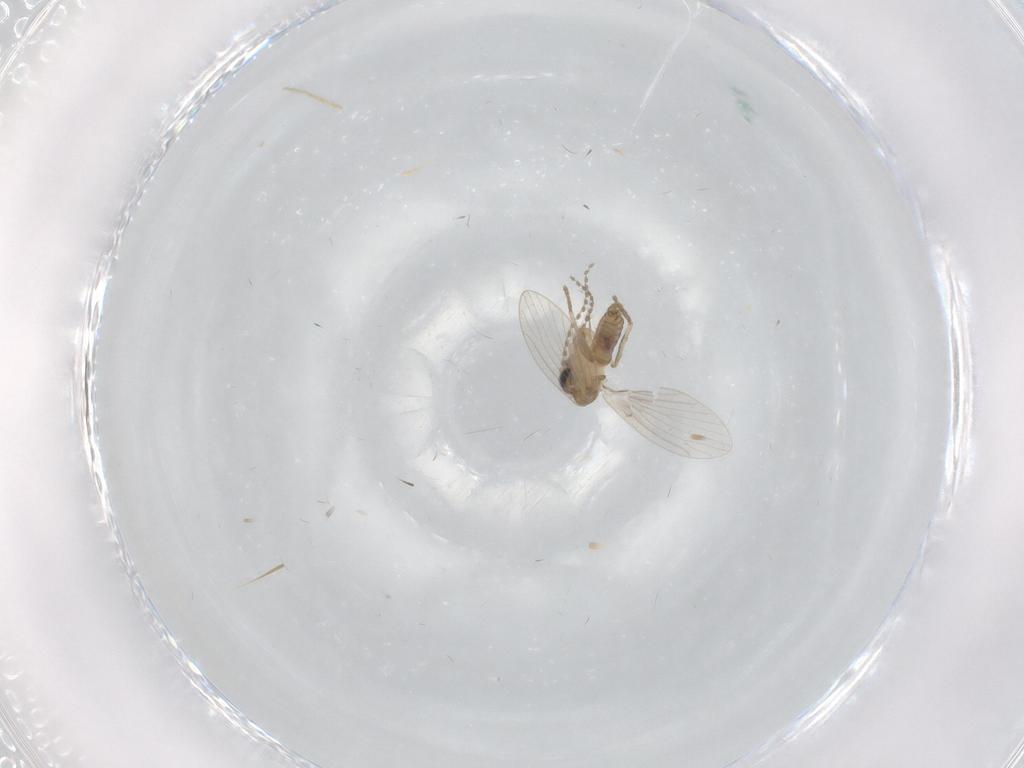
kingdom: Animalia
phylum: Arthropoda
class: Insecta
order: Diptera
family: Psychodidae
